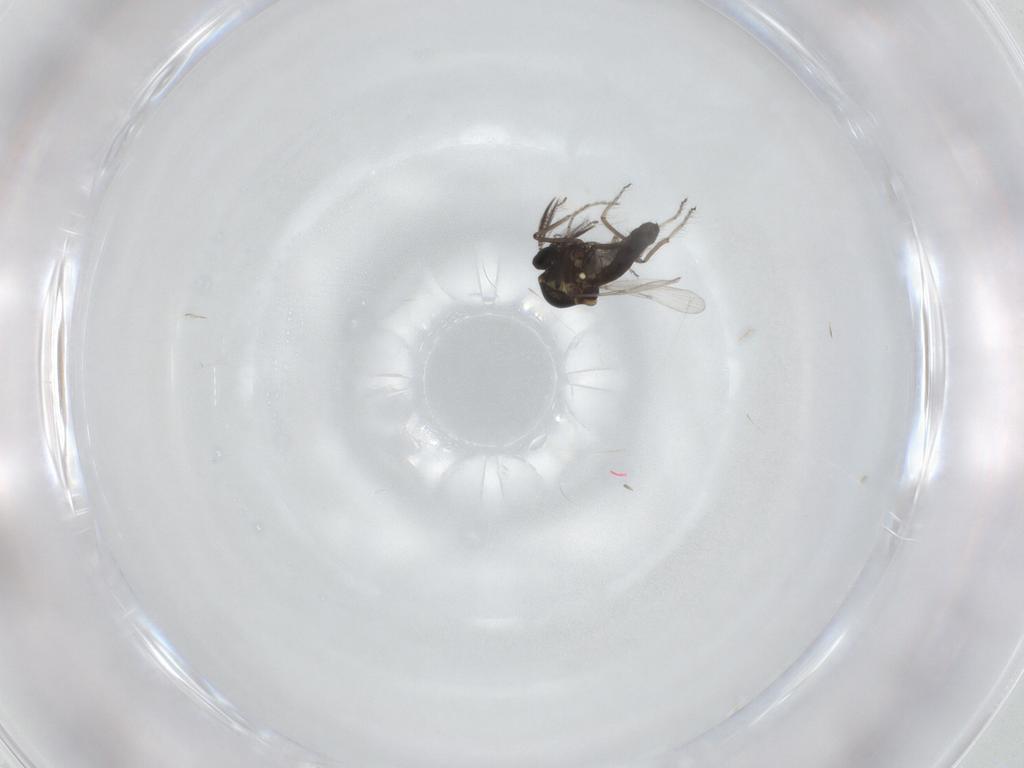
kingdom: Animalia
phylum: Arthropoda
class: Insecta
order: Diptera
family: Ceratopogonidae
